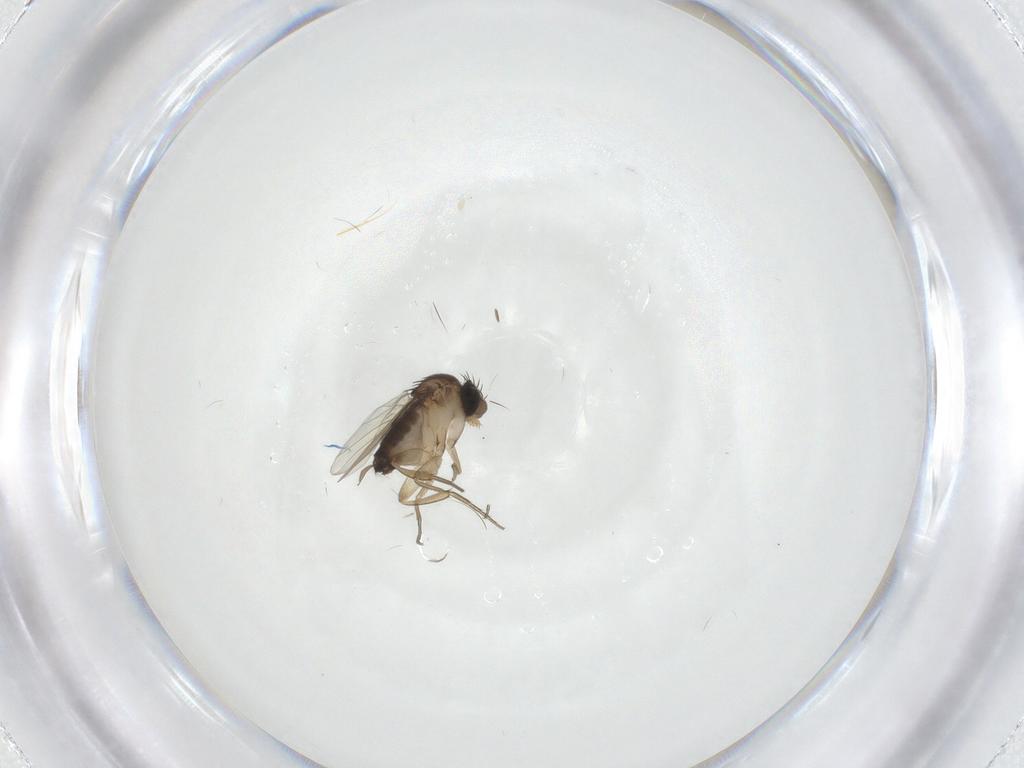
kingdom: Animalia
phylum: Arthropoda
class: Insecta
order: Diptera
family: Chironomidae
